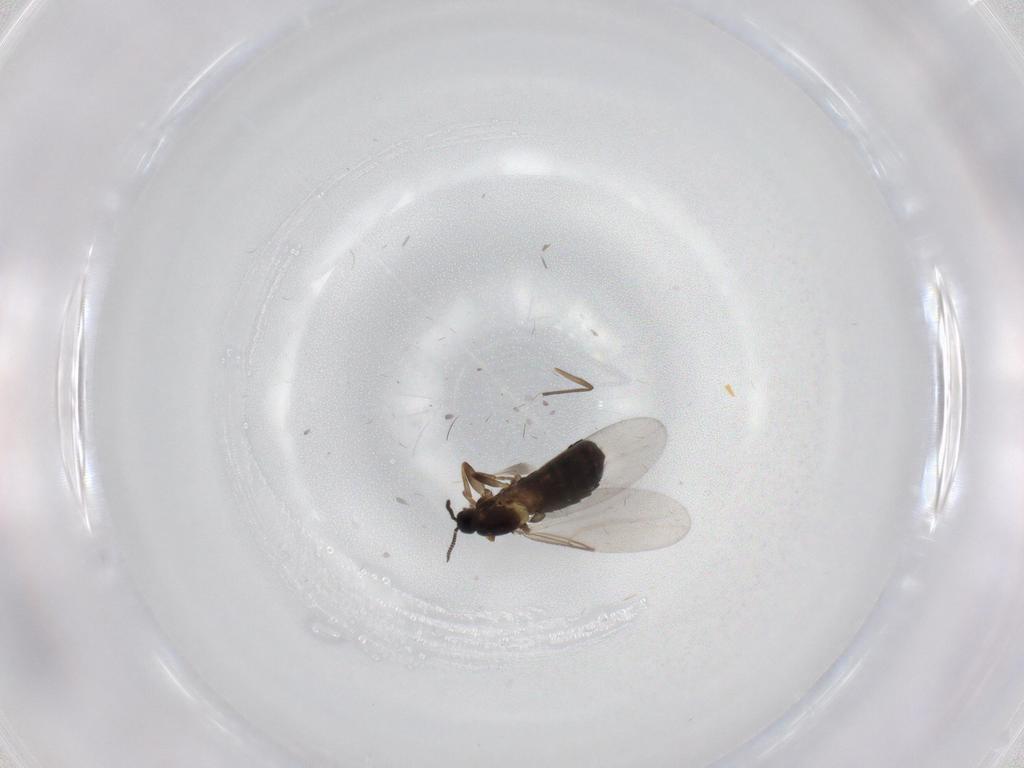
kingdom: Animalia
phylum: Arthropoda
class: Insecta
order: Diptera
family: Scatopsidae
